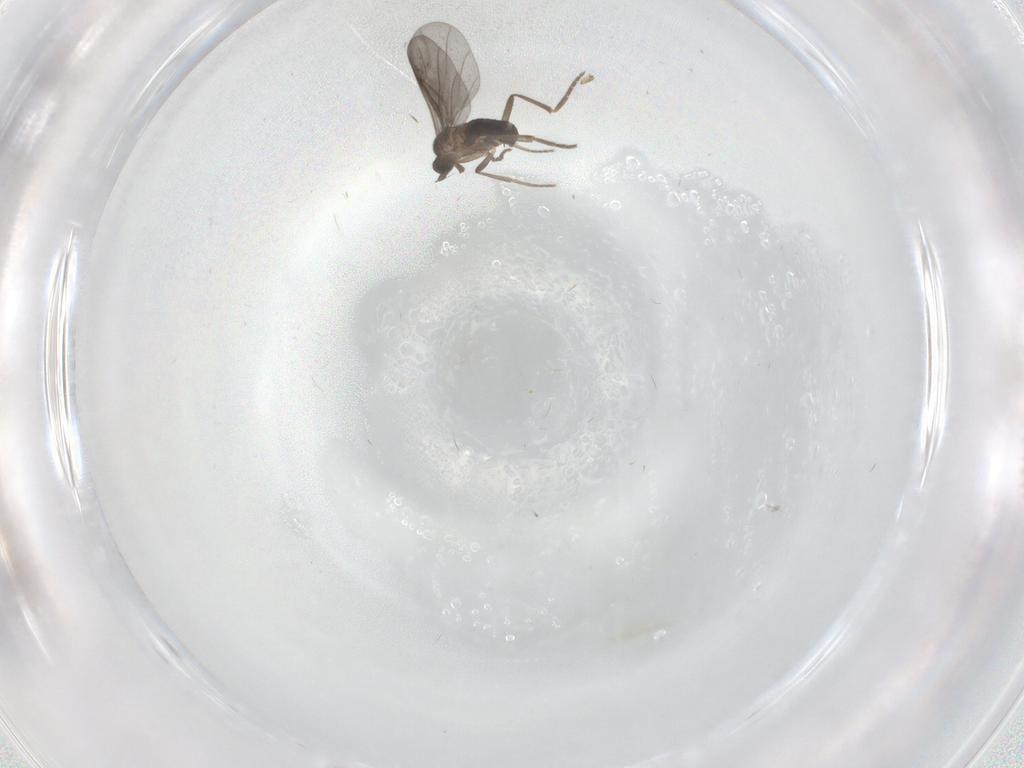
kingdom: Animalia
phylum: Arthropoda
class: Insecta
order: Diptera
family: Phoridae
